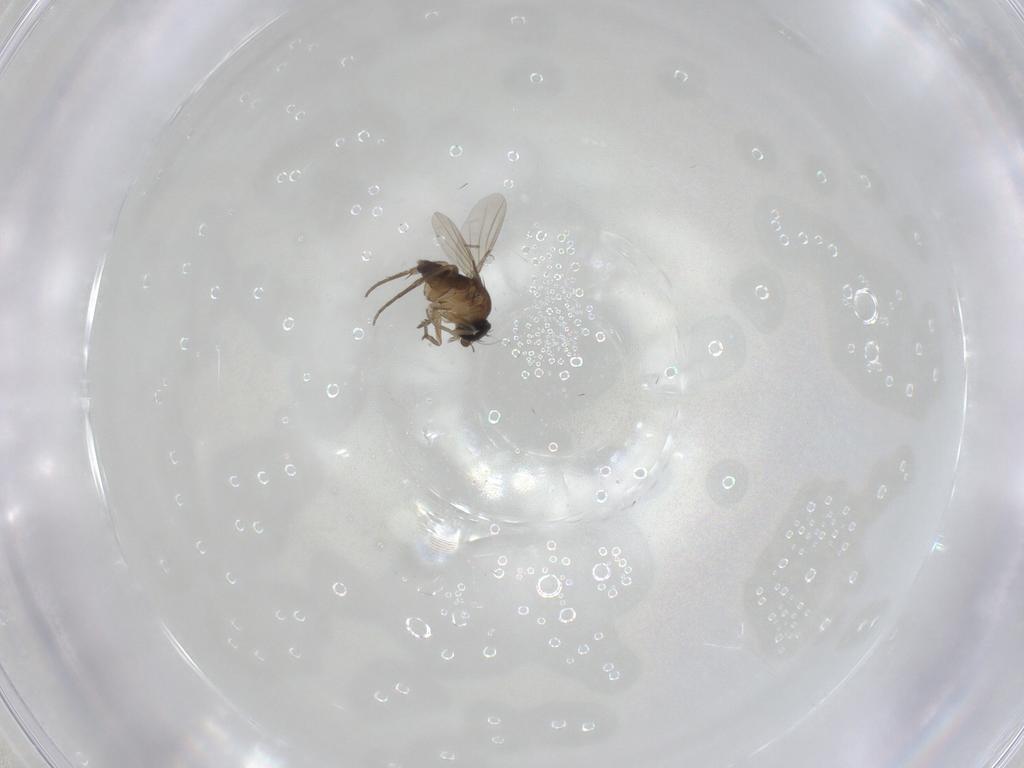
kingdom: Animalia
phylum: Arthropoda
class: Insecta
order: Diptera
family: Phoridae
